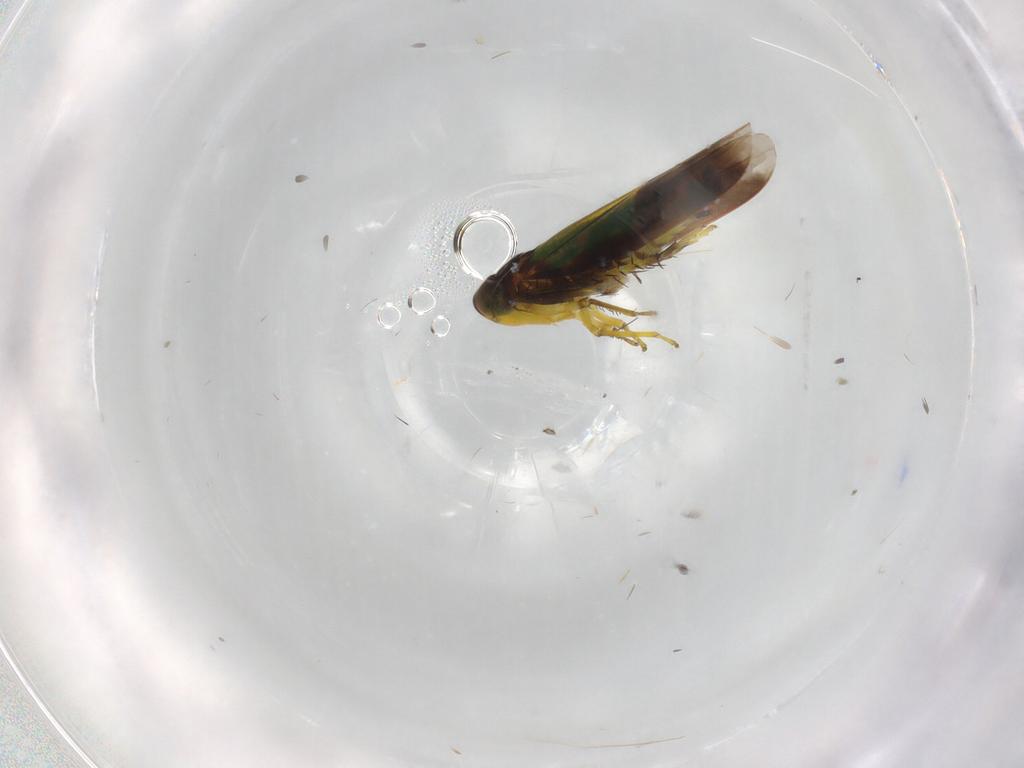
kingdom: Animalia
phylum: Arthropoda
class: Insecta
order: Hemiptera
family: Cicadellidae
